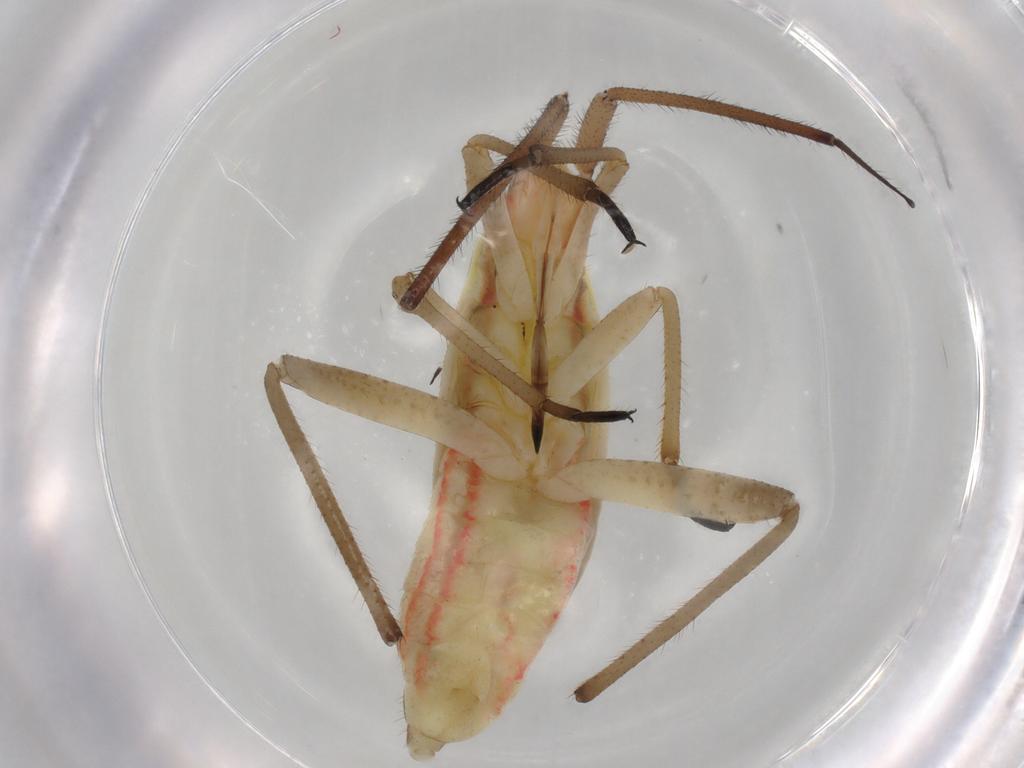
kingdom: Animalia
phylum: Arthropoda
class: Insecta
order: Hemiptera
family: Miridae
